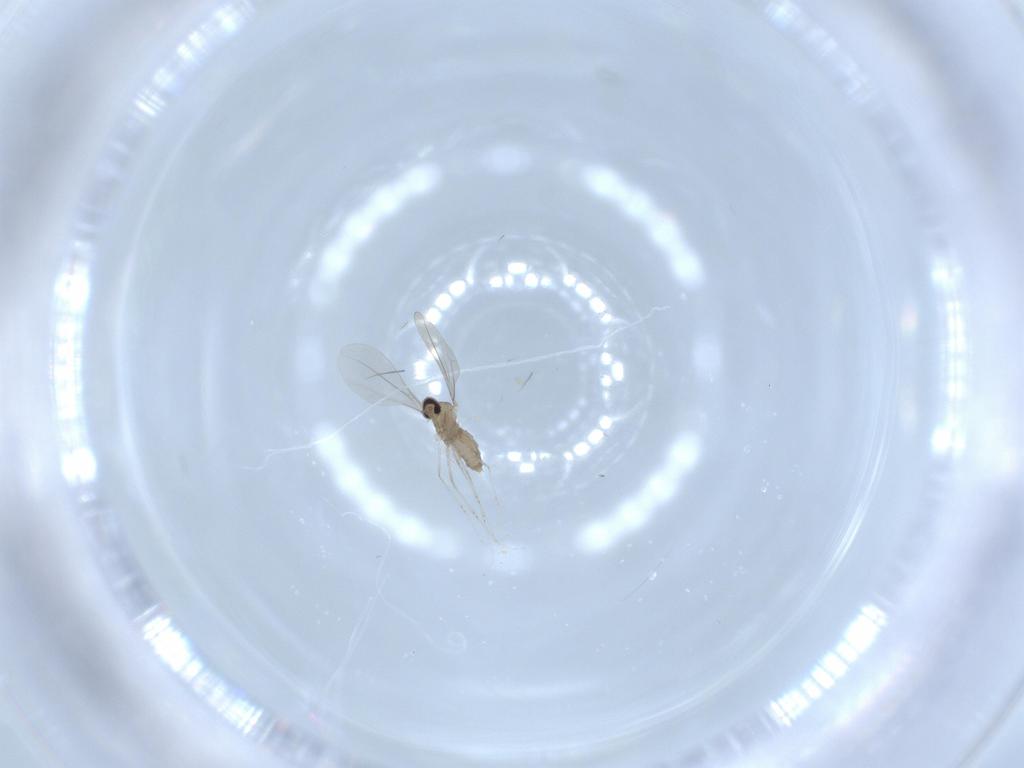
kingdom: Animalia
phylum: Arthropoda
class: Insecta
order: Diptera
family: Cecidomyiidae
